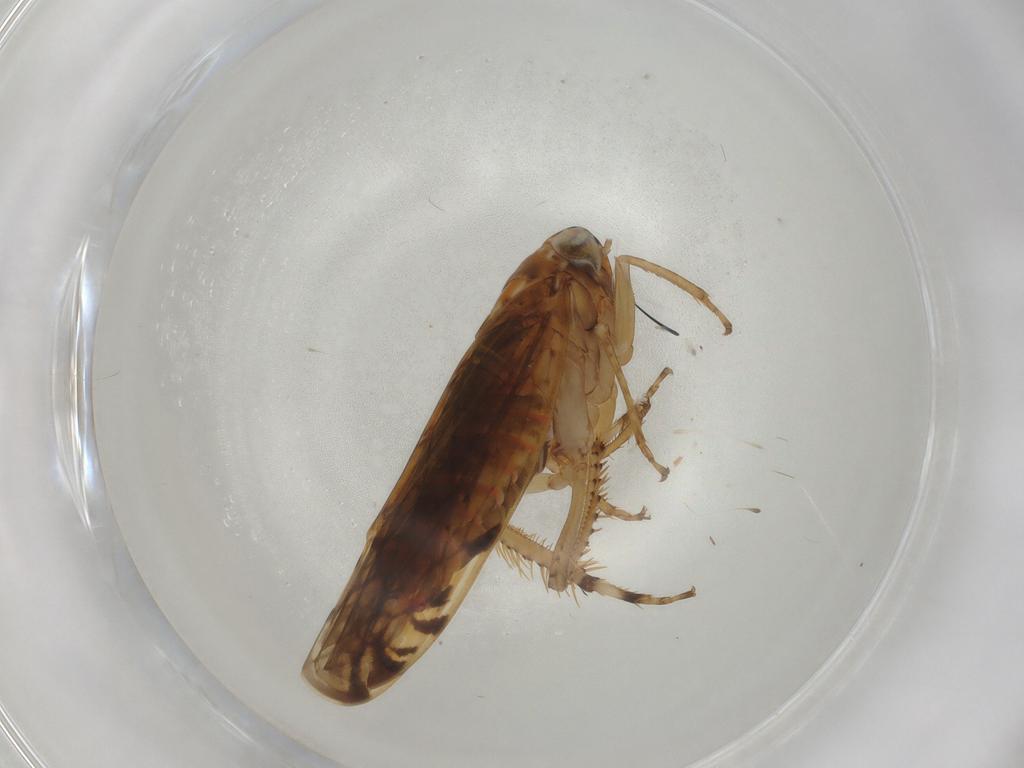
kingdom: Animalia
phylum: Arthropoda
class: Insecta
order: Hemiptera
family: Cicadellidae
